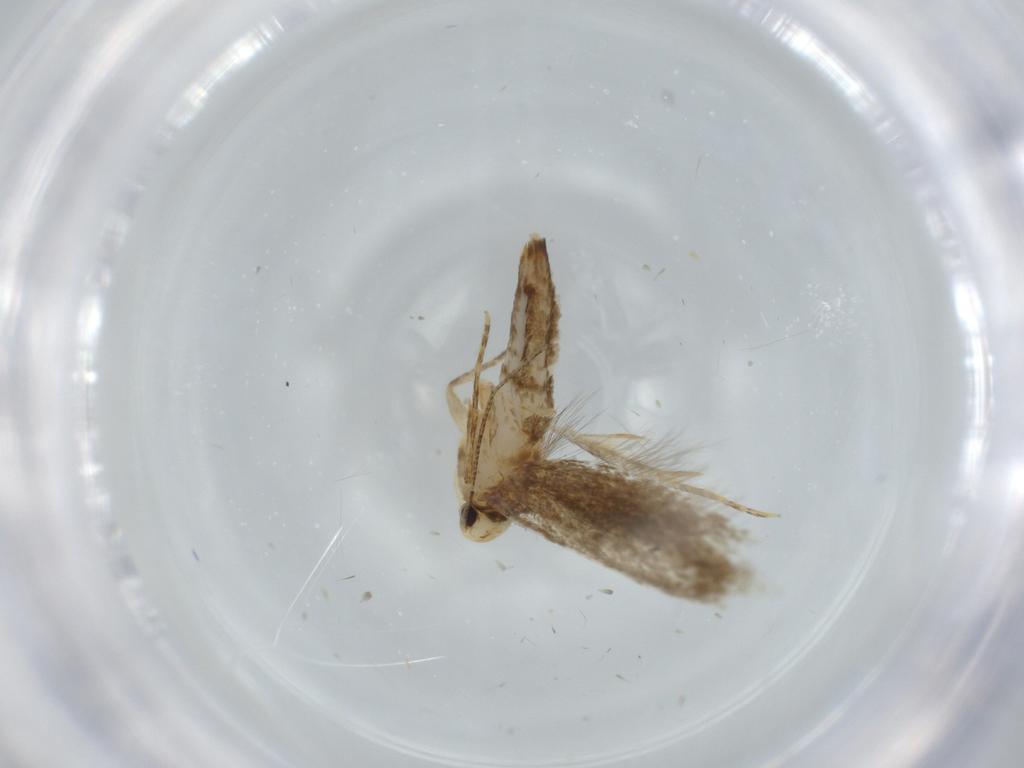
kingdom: Animalia
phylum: Arthropoda
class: Insecta
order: Lepidoptera
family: Tineidae
